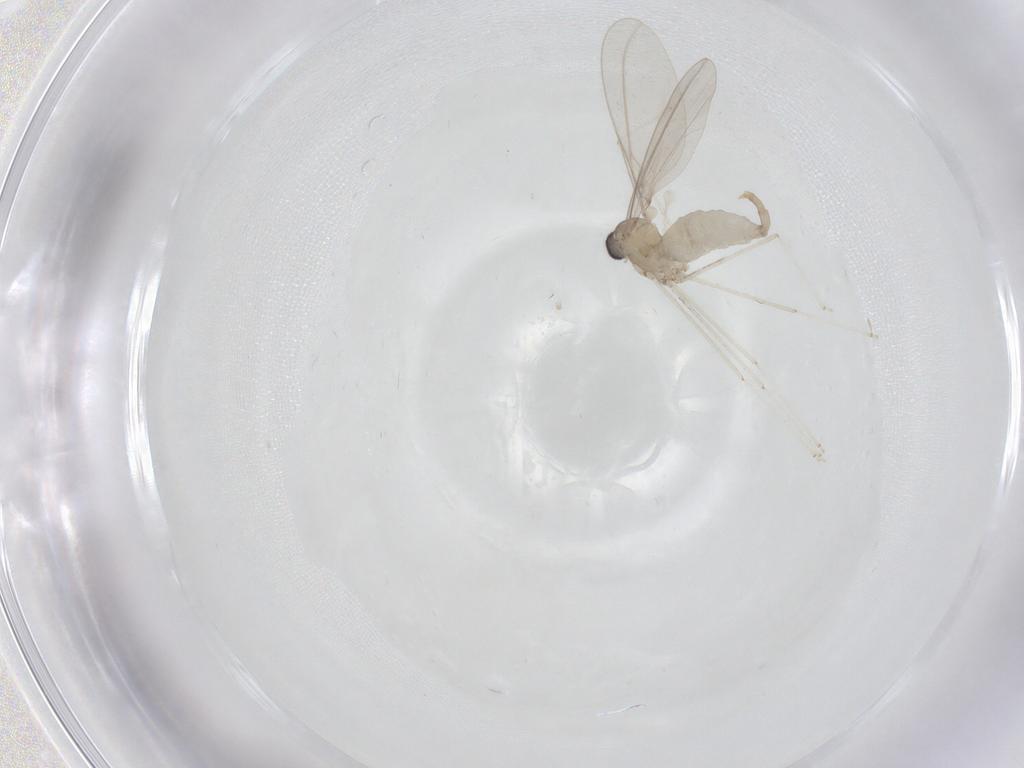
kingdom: Animalia
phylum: Arthropoda
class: Insecta
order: Diptera
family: Cecidomyiidae
